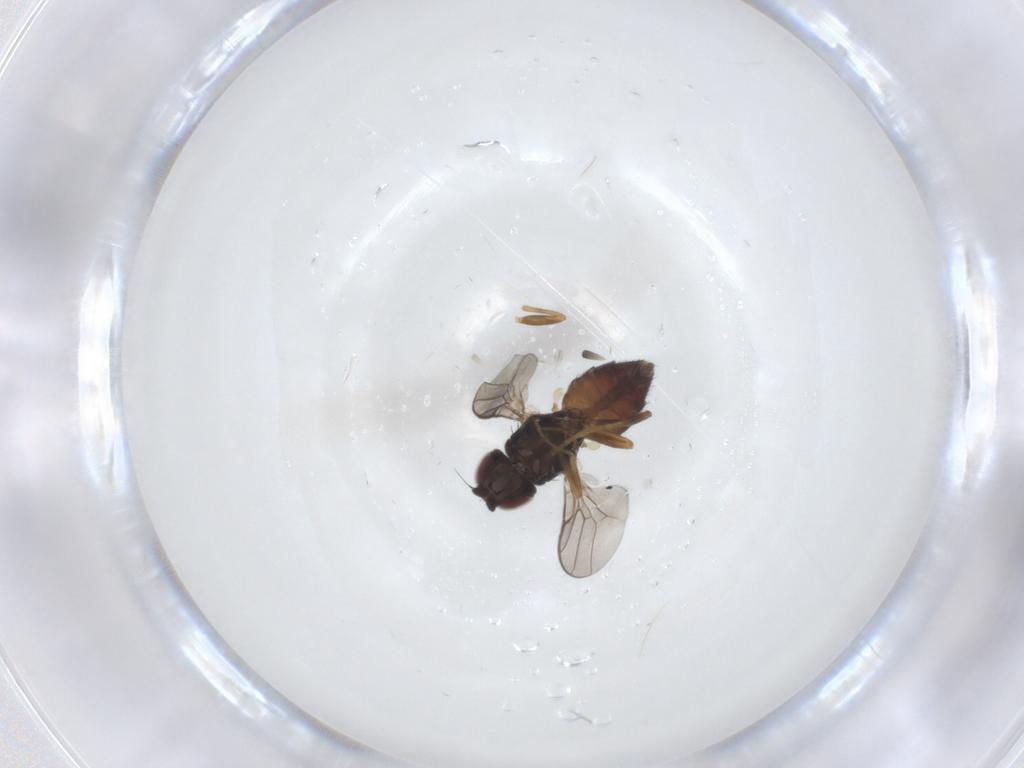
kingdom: Animalia
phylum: Arthropoda
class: Insecta
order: Diptera
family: Chloropidae
